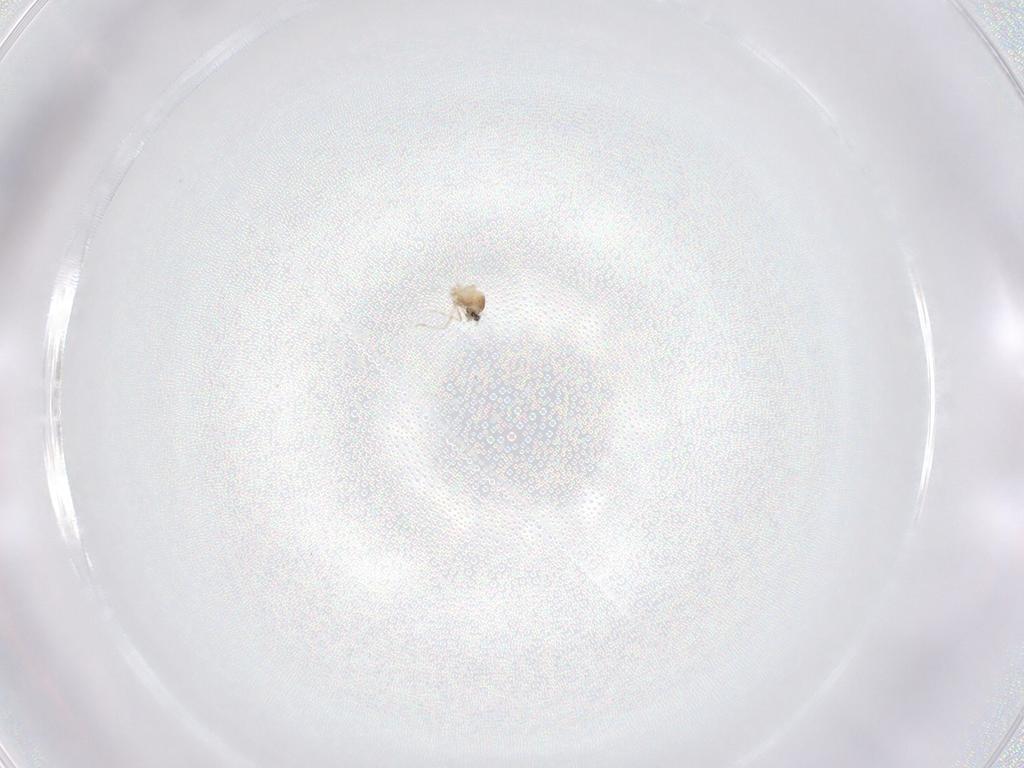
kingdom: Animalia
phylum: Arthropoda
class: Insecta
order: Diptera
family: Cecidomyiidae
